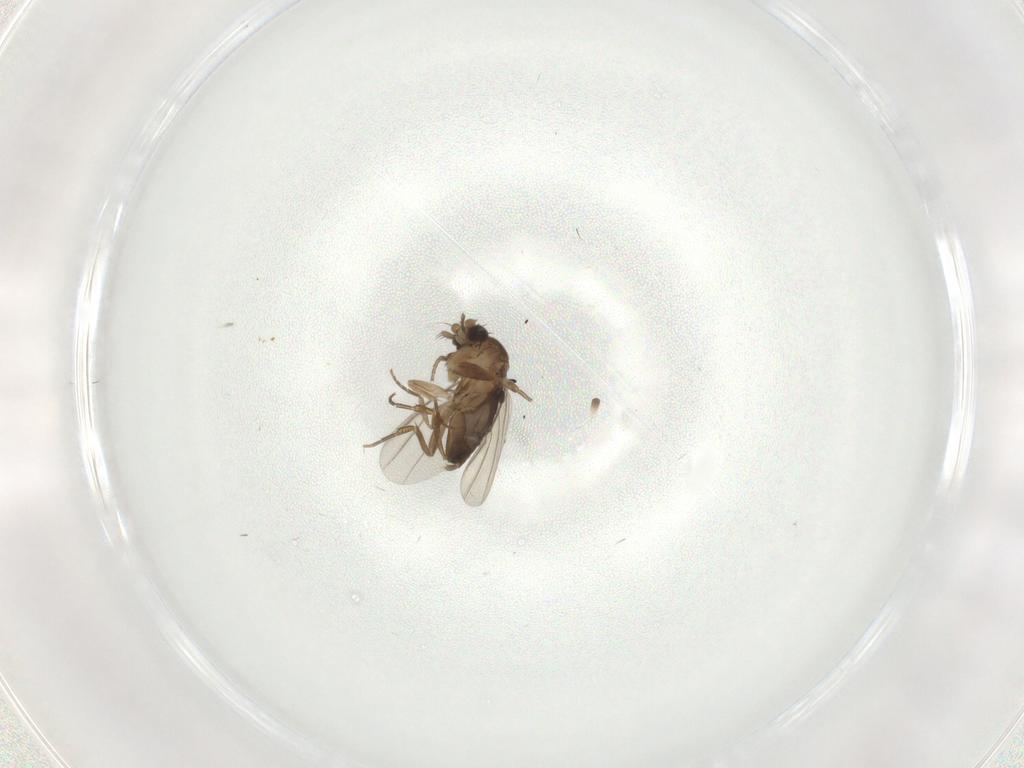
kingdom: Animalia
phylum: Arthropoda
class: Insecta
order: Diptera
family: Phoridae
